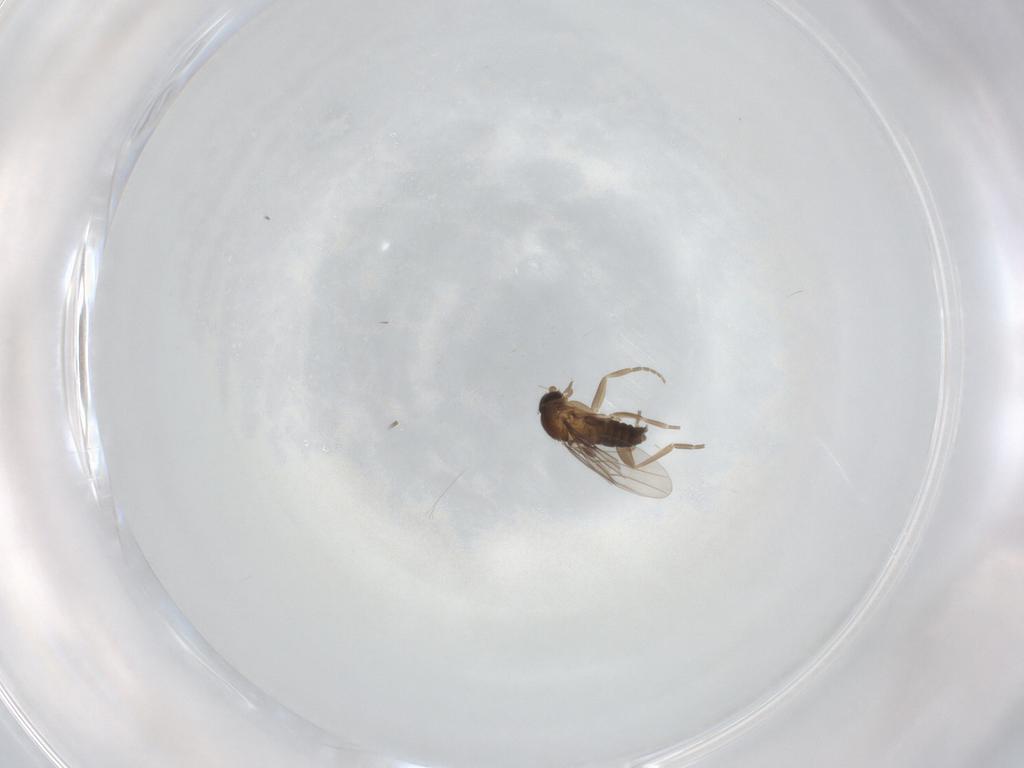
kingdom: Animalia
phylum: Arthropoda
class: Insecta
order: Diptera
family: Phoridae
